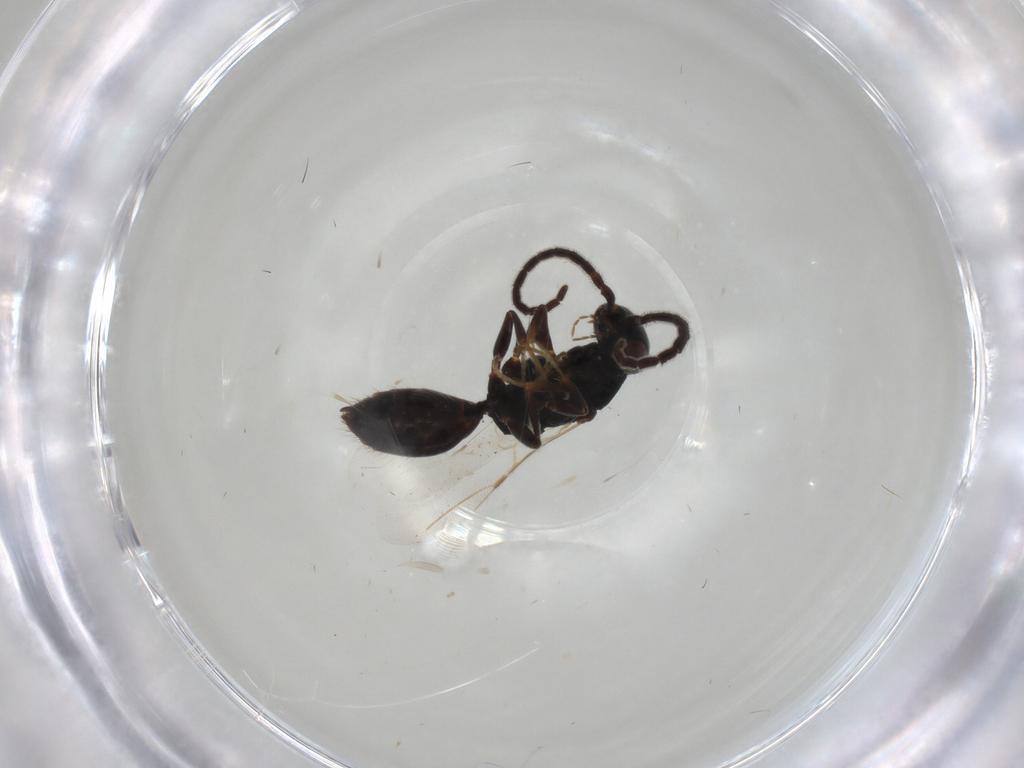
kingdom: Animalia
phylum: Arthropoda
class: Insecta
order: Hymenoptera
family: Bethylidae
